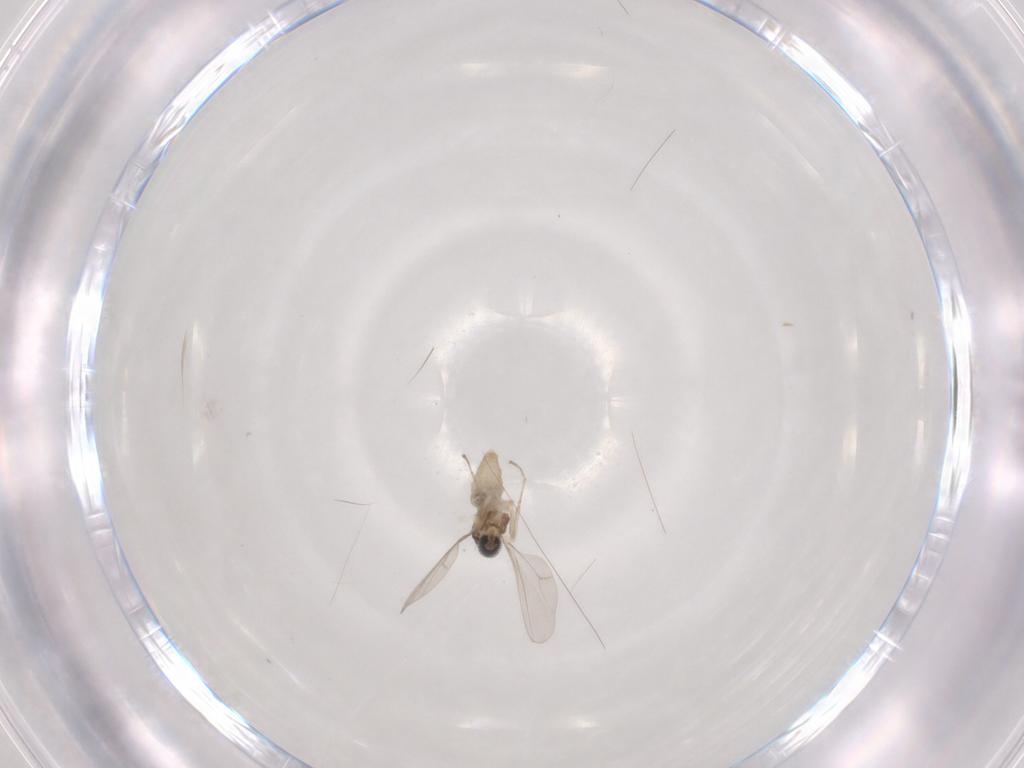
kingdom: Animalia
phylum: Arthropoda
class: Insecta
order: Diptera
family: Cecidomyiidae
